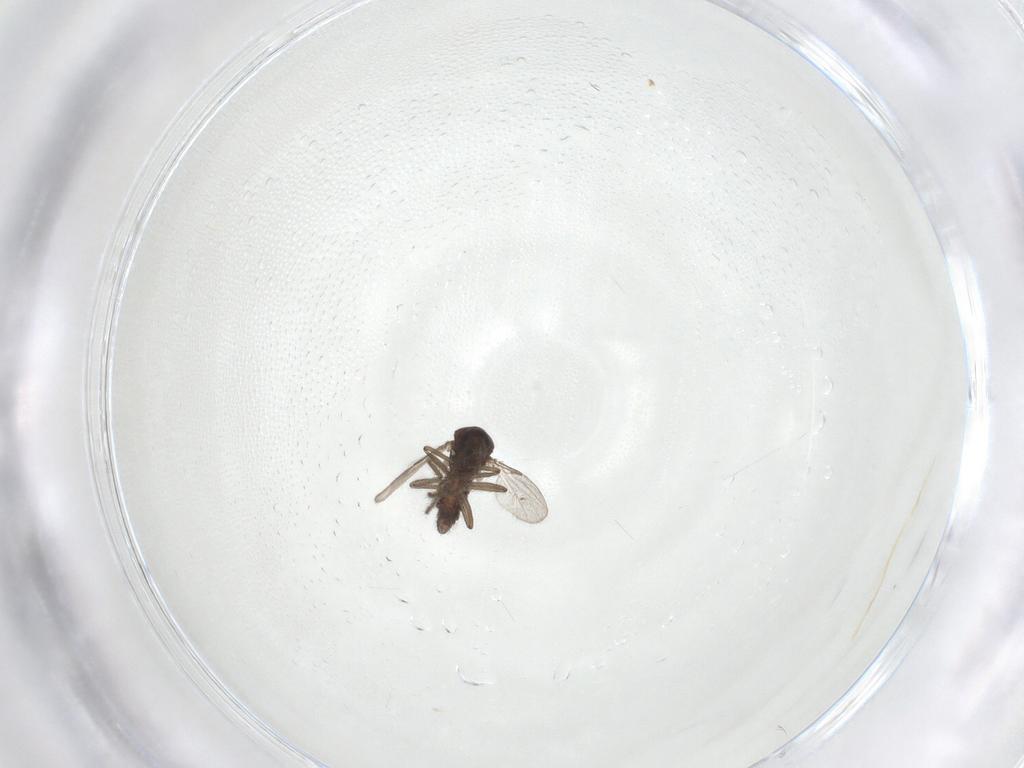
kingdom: Animalia
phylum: Arthropoda
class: Insecta
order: Diptera
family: Ceratopogonidae
